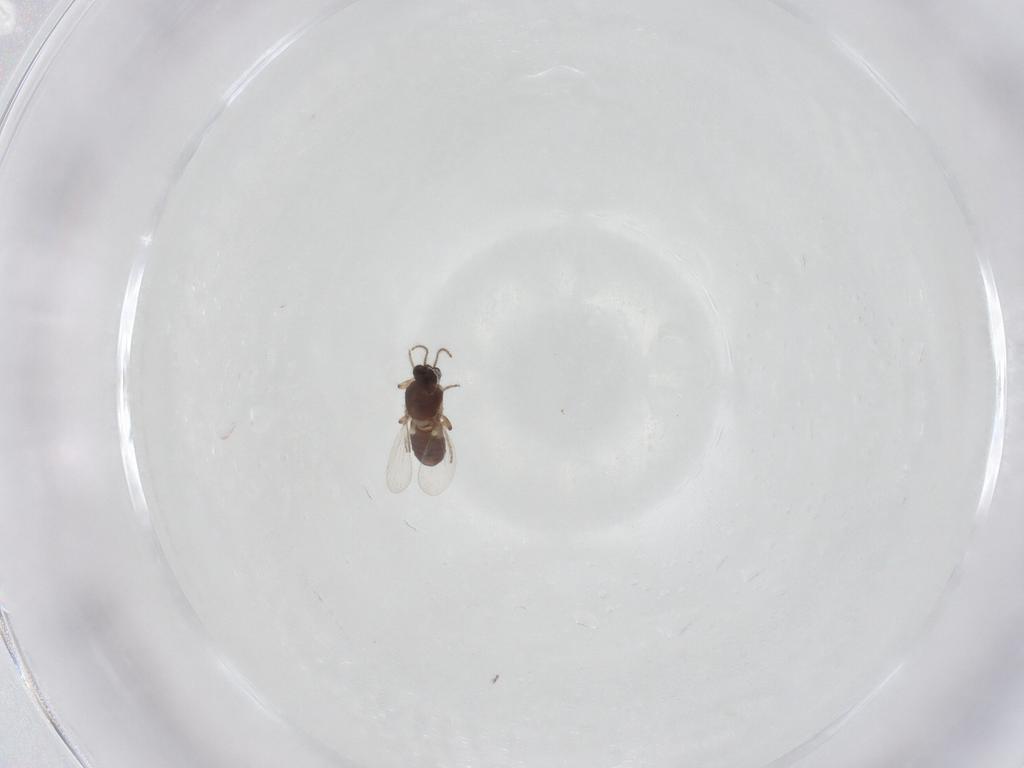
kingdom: Animalia
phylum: Arthropoda
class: Insecta
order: Diptera
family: Ceratopogonidae
